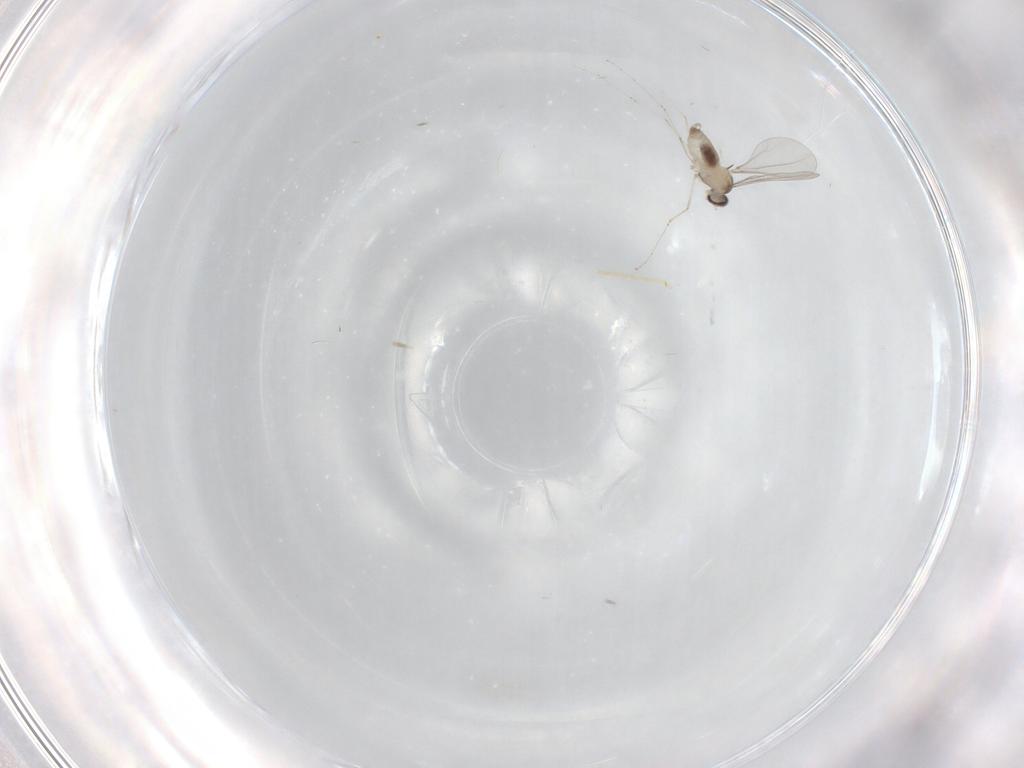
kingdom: Animalia
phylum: Arthropoda
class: Insecta
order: Diptera
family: Cecidomyiidae
